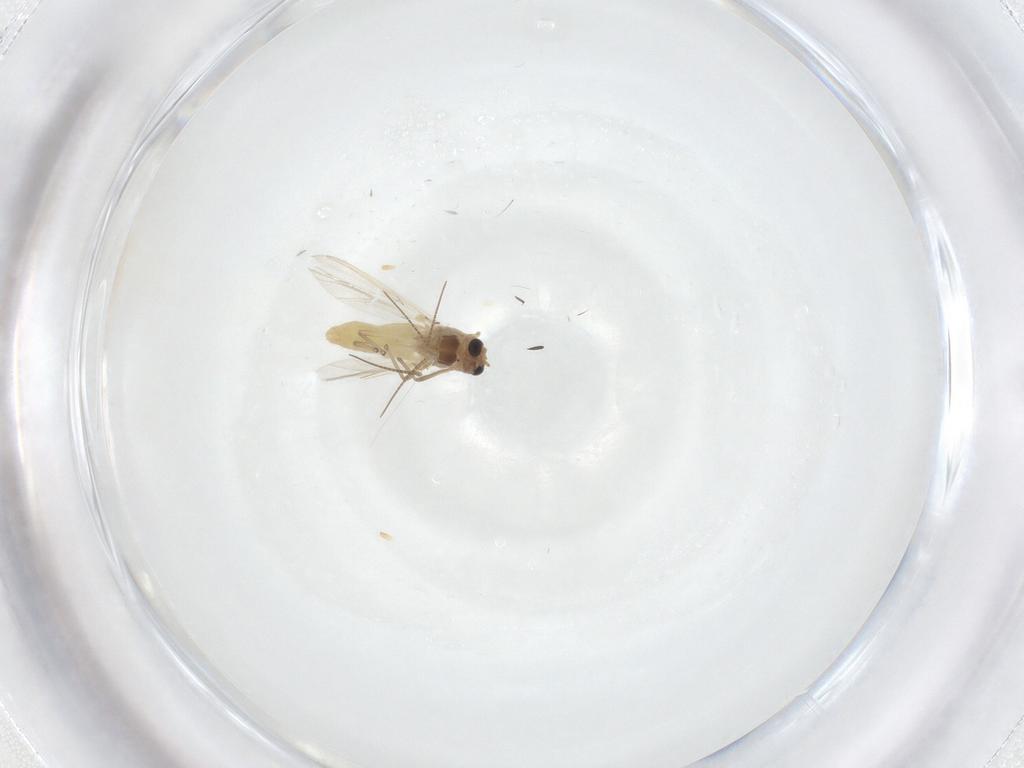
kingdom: Animalia
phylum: Arthropoda
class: Insecta
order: Diptera
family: Chironomidae
